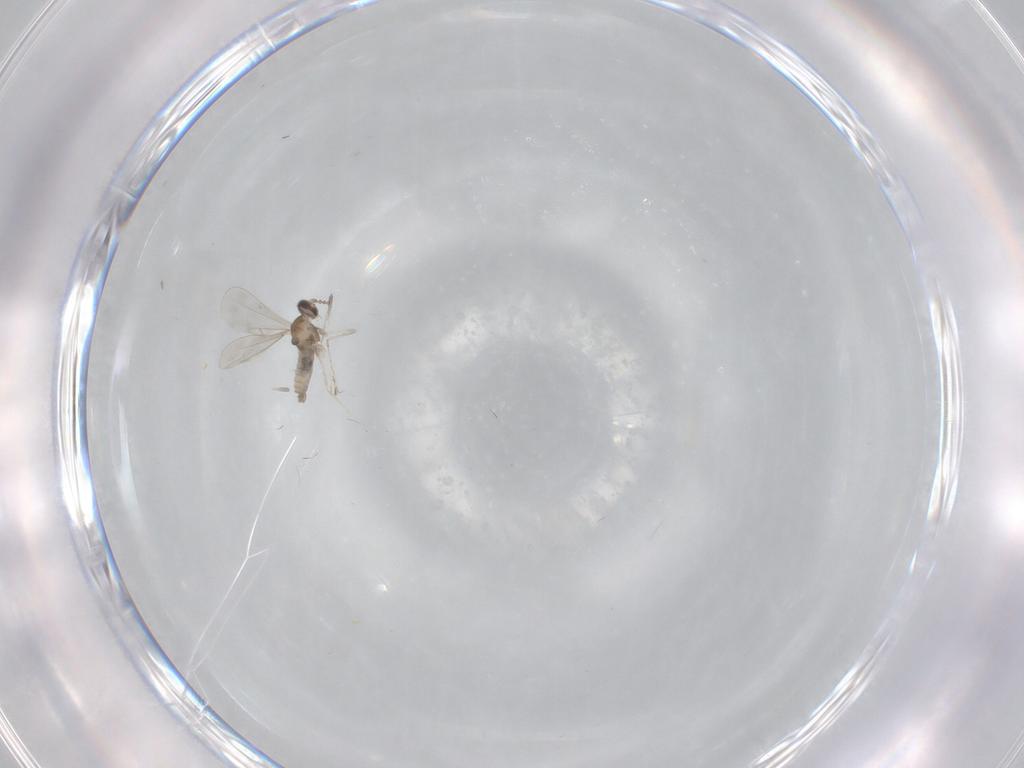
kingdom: Animalia
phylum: Arthropoda
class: Insecta
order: Diptera
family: Cecidomyiidae
